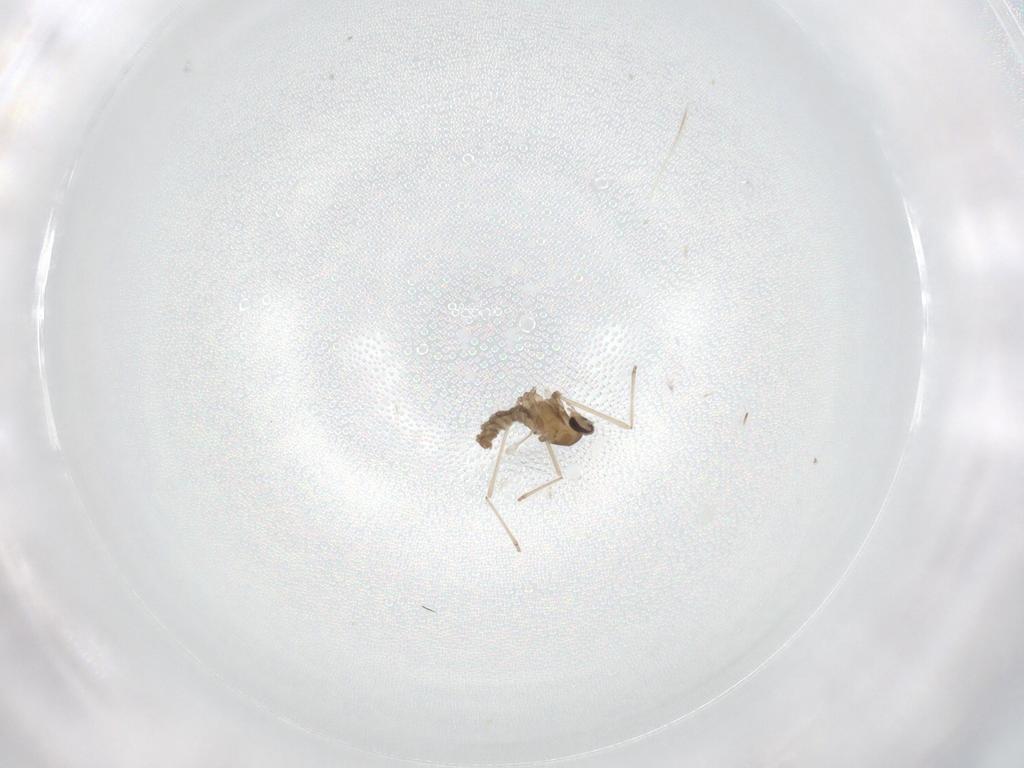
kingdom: Animalia
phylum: Arthropoda
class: Insecta
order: Diptera
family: Cecidomyiidae
